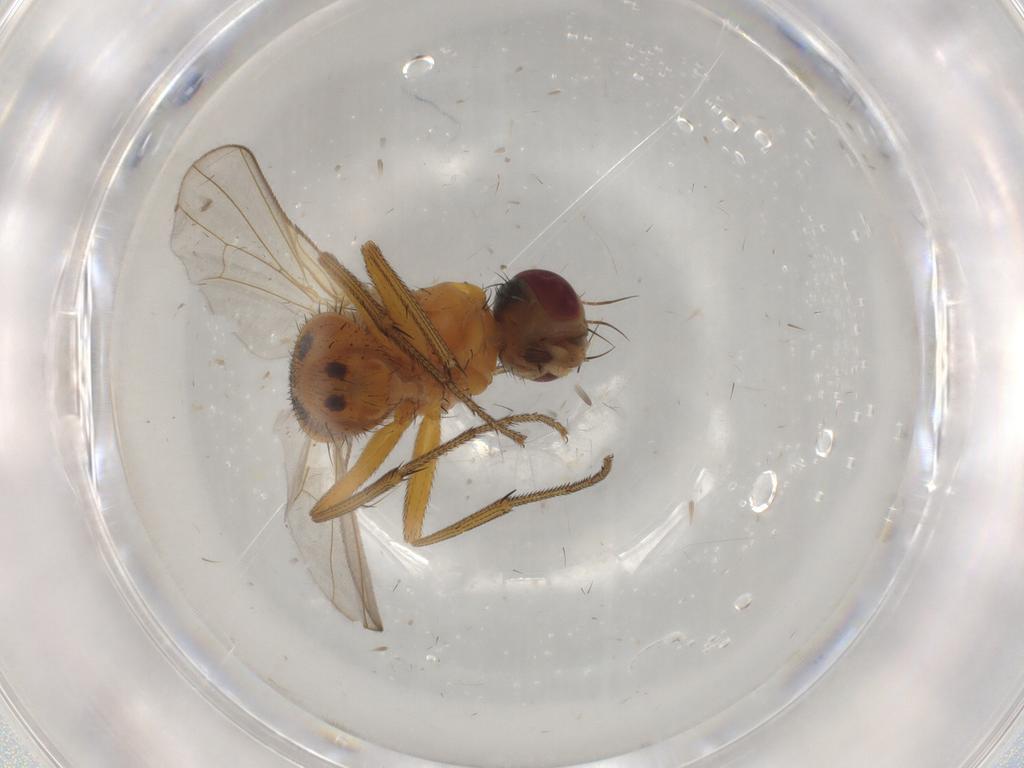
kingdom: Animalia
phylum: Arthropoda
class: Insecta
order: Diptera
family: Muscidae
